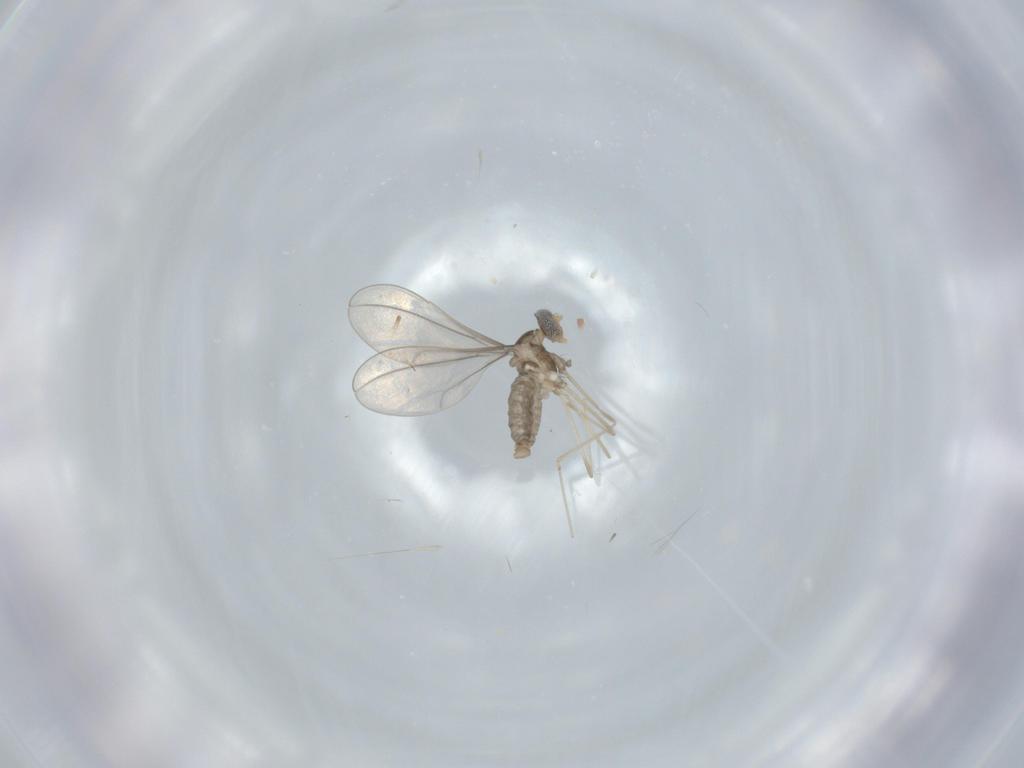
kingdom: Animalia
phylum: Arthropoda
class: Insecta
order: Diptera
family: Cecidomyiidae
